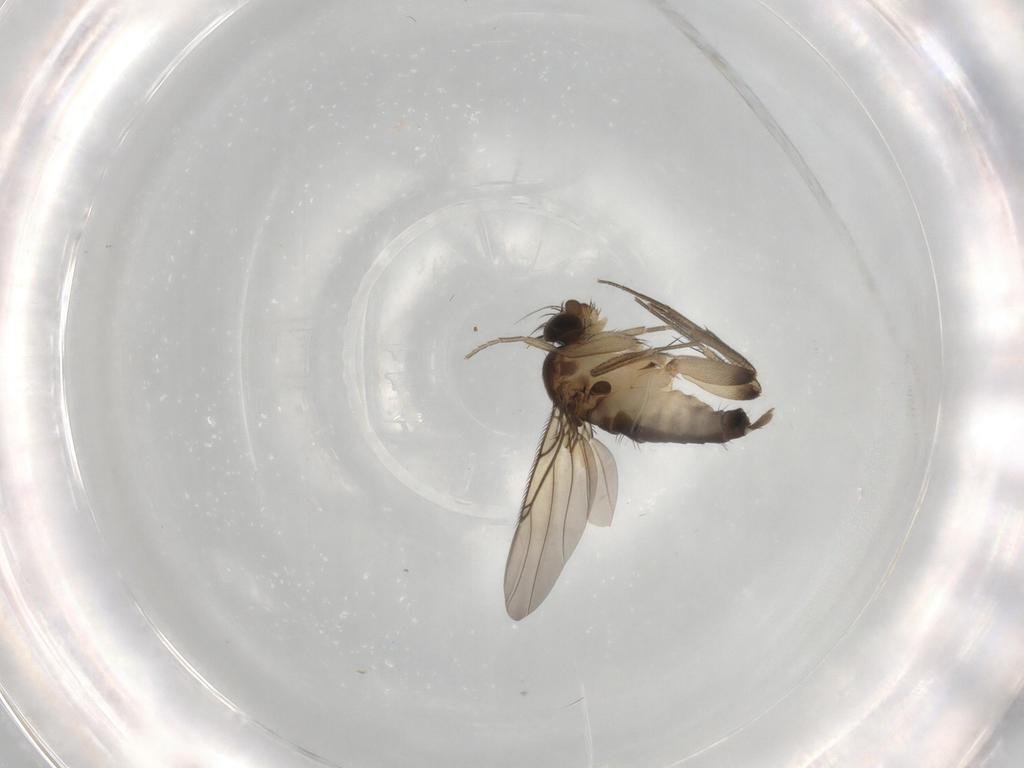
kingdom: Animalia
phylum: Arthropoda
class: Insecta
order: Diptera
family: Phoridae
